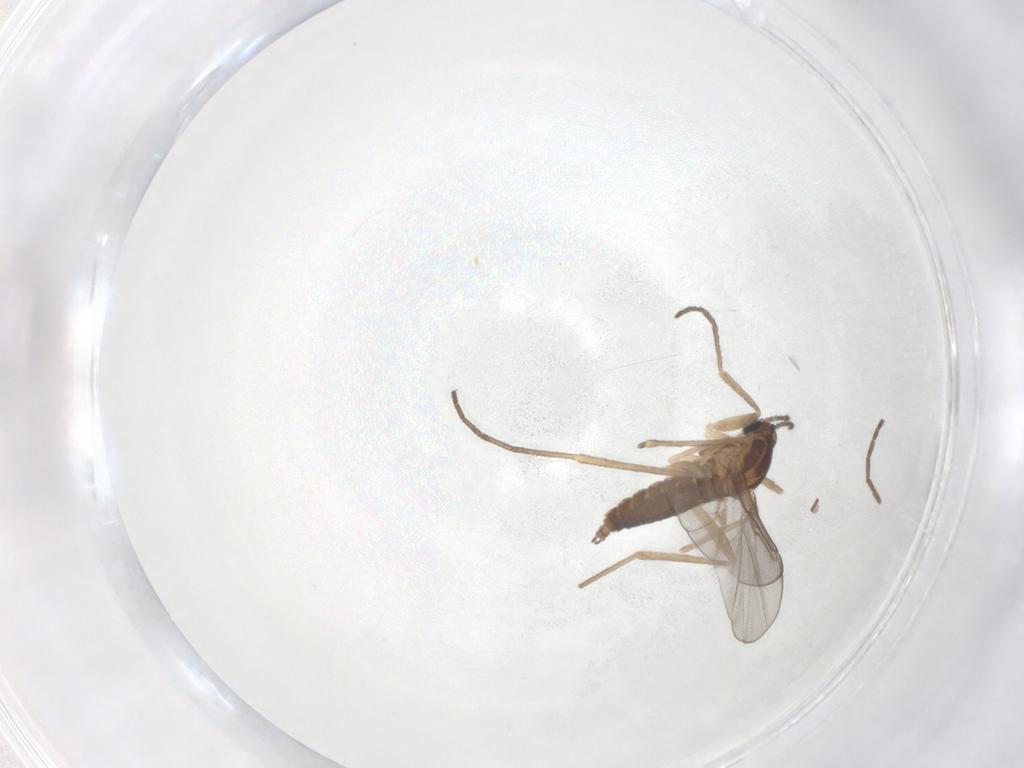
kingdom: Animalia
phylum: Arthropoda
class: Insecta
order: Diptera
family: Cecidomyiidae
